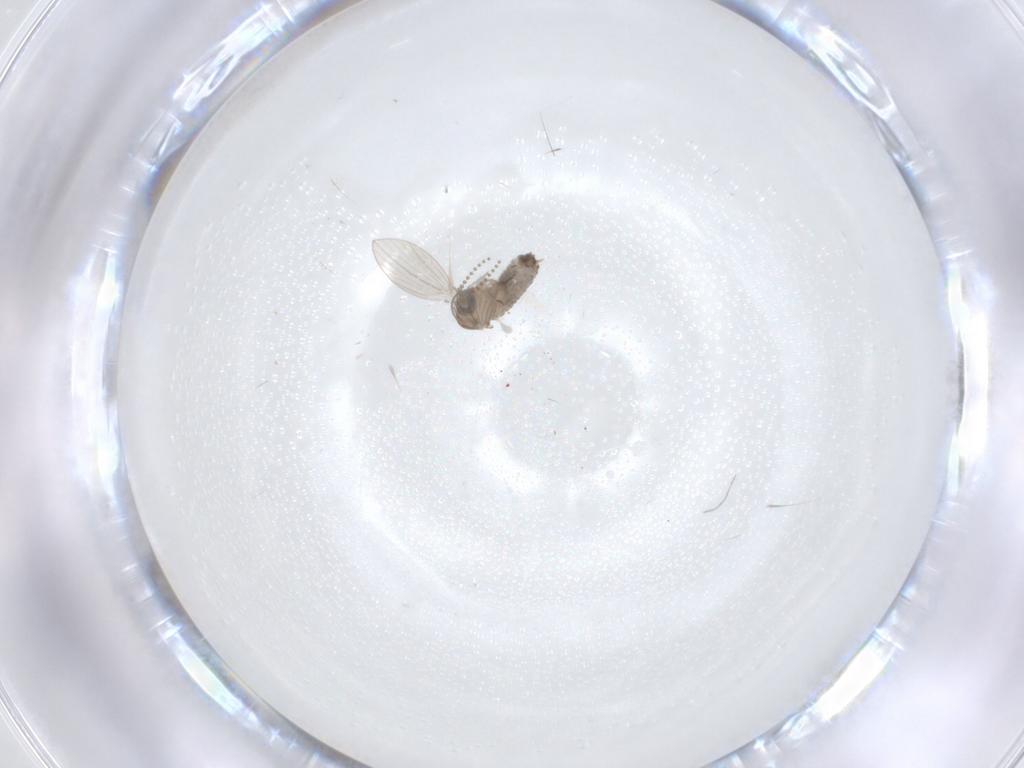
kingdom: Animalia
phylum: Arthropoda
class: Insecta
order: Diptera
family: Psychodidae
